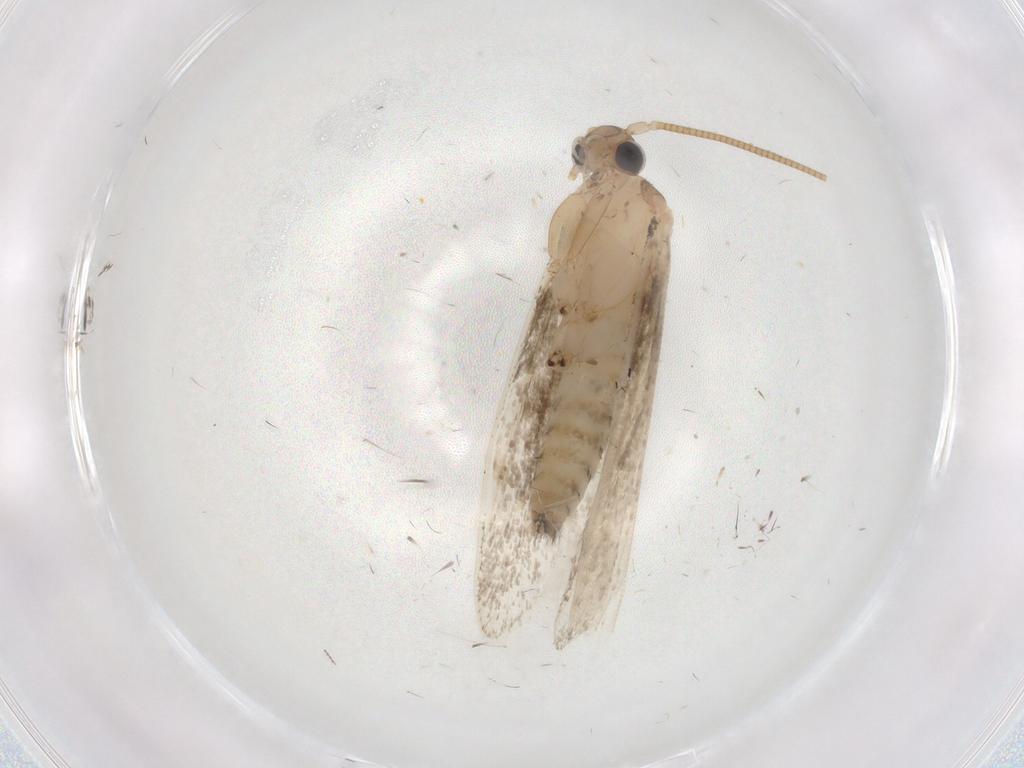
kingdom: Animalia
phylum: Arthropoda
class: Insecta
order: Lepidoptera
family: Tineidae
